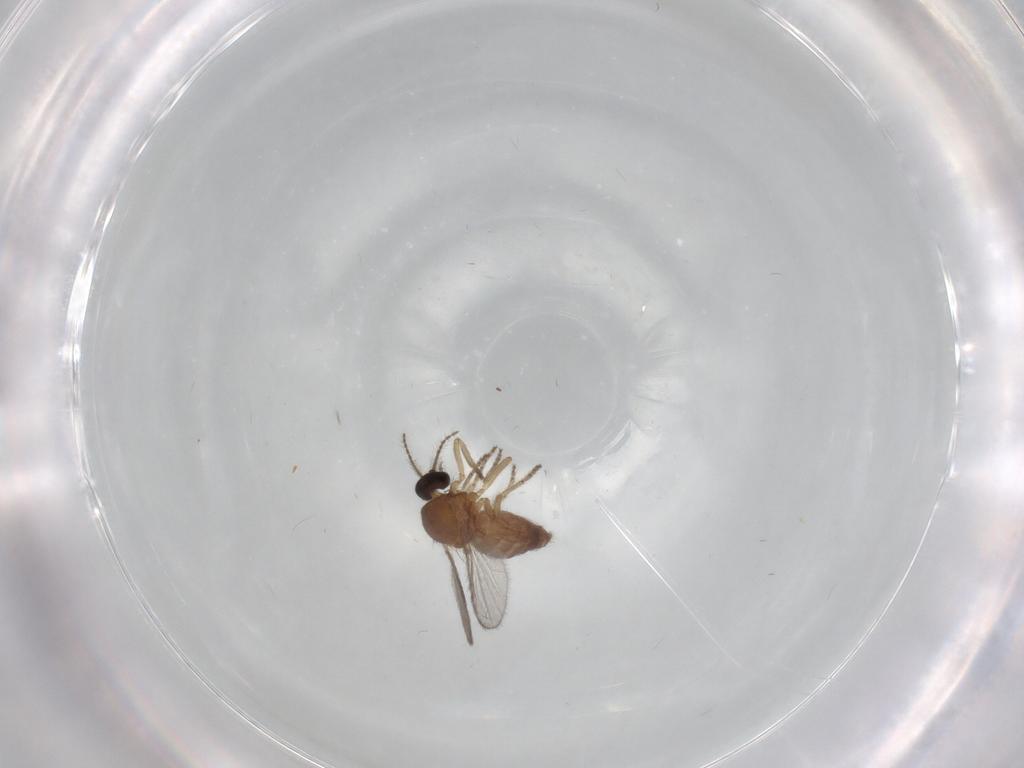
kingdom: Animalia
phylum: Arthropoda
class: Insecta
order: Diptera
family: Ceratopogonidae
